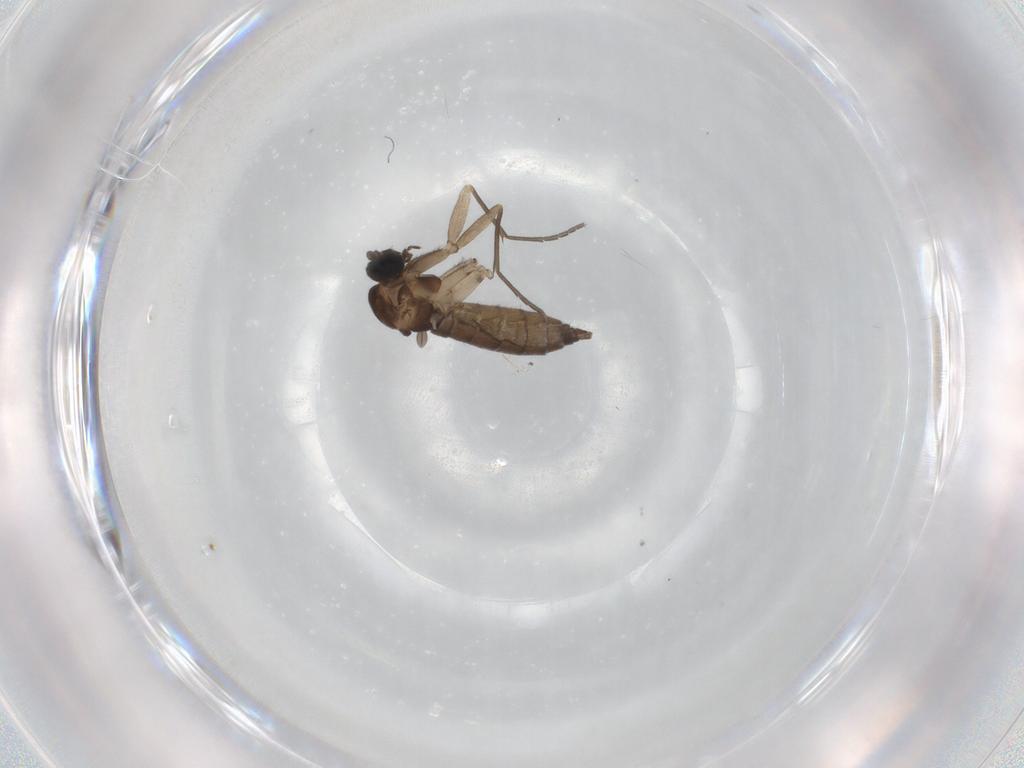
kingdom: Animalia
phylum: Arthropoda
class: Insecta
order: Diptera
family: Sciaridae
